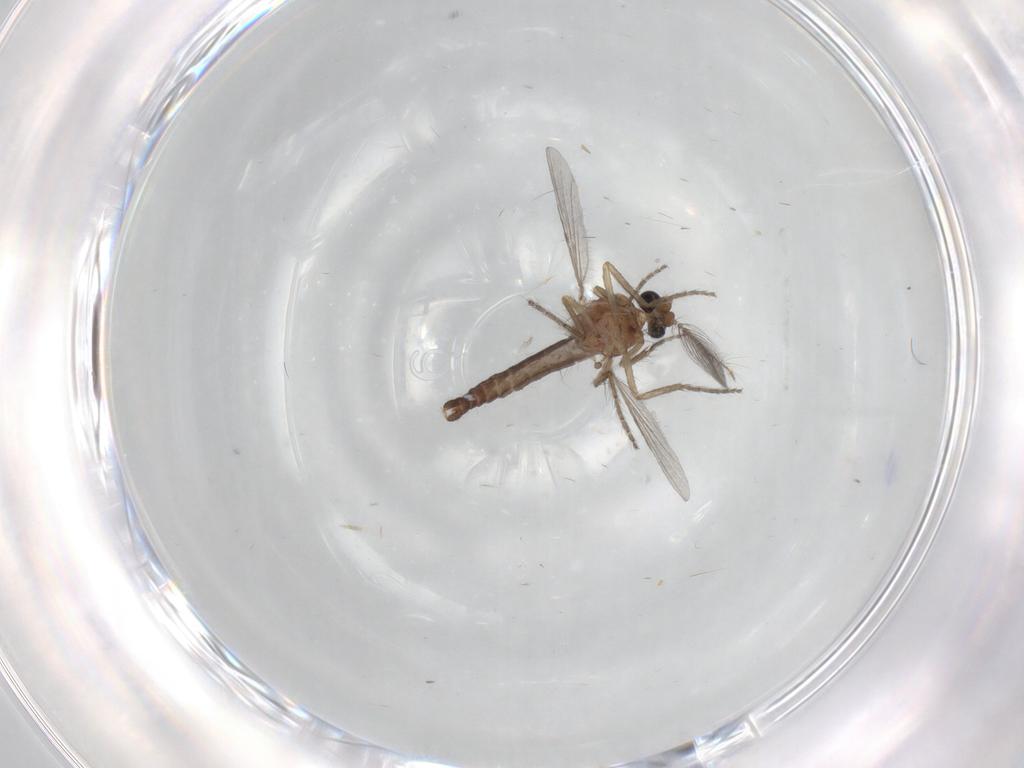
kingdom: Animalia
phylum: Arthropoda
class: Insecta
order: Diptera
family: Ceratopogonidae
